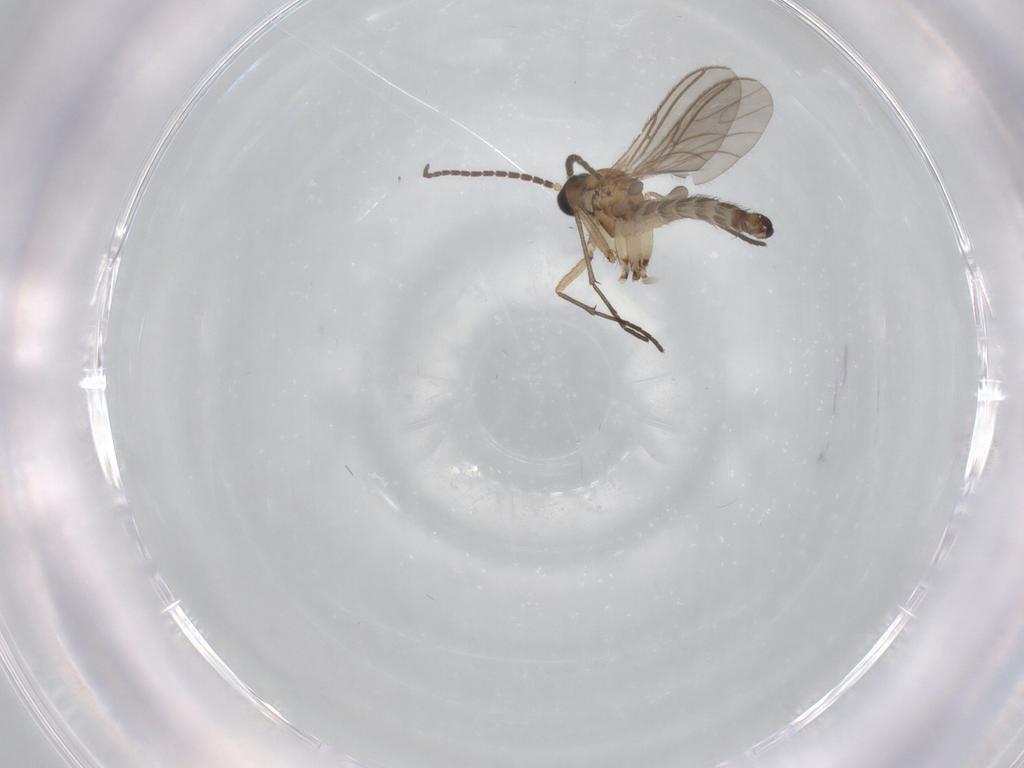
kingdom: Animalia
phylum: Arthropoda
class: Insecta
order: Diptera
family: Sciaridae
